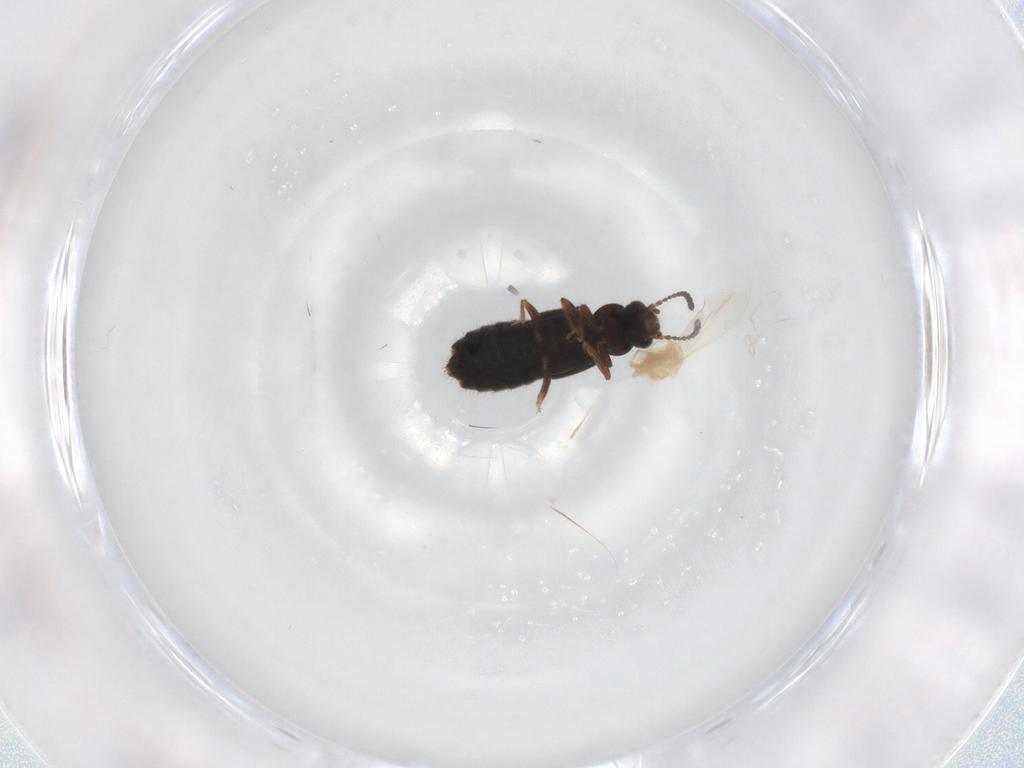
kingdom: Animalia
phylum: Arthropoda
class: Insecta
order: Coleoptera
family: Staphylinidae
